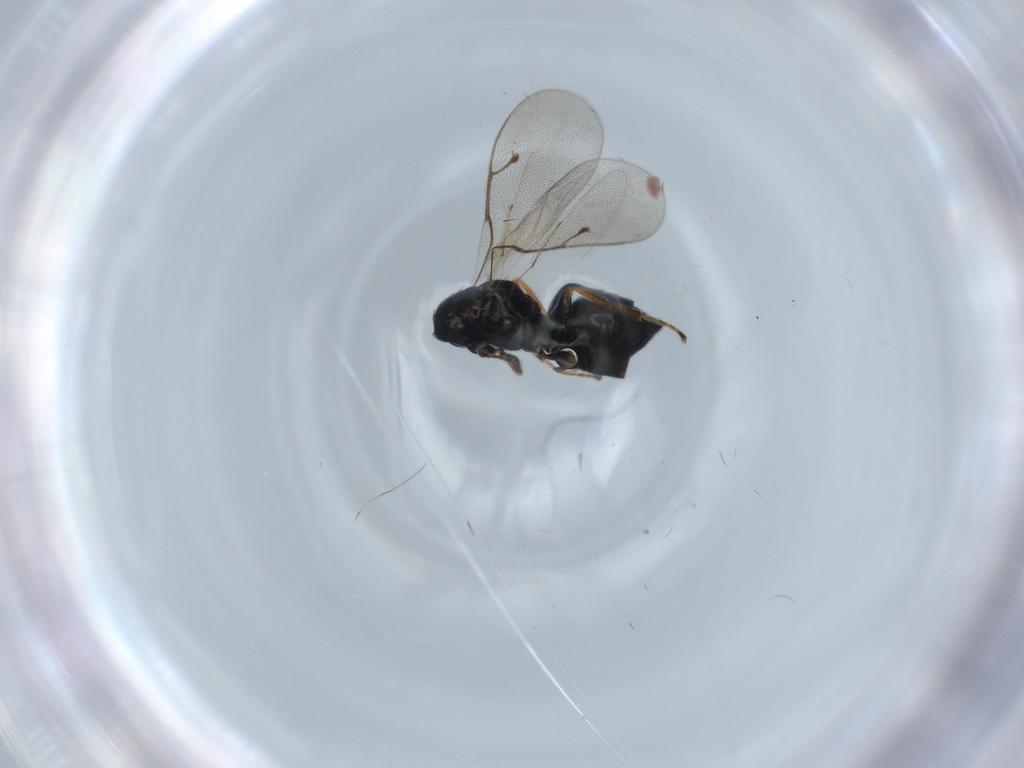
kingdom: Animalia
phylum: Arthropoda
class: Insecta
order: Hymenoptera
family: Pteromalidae
